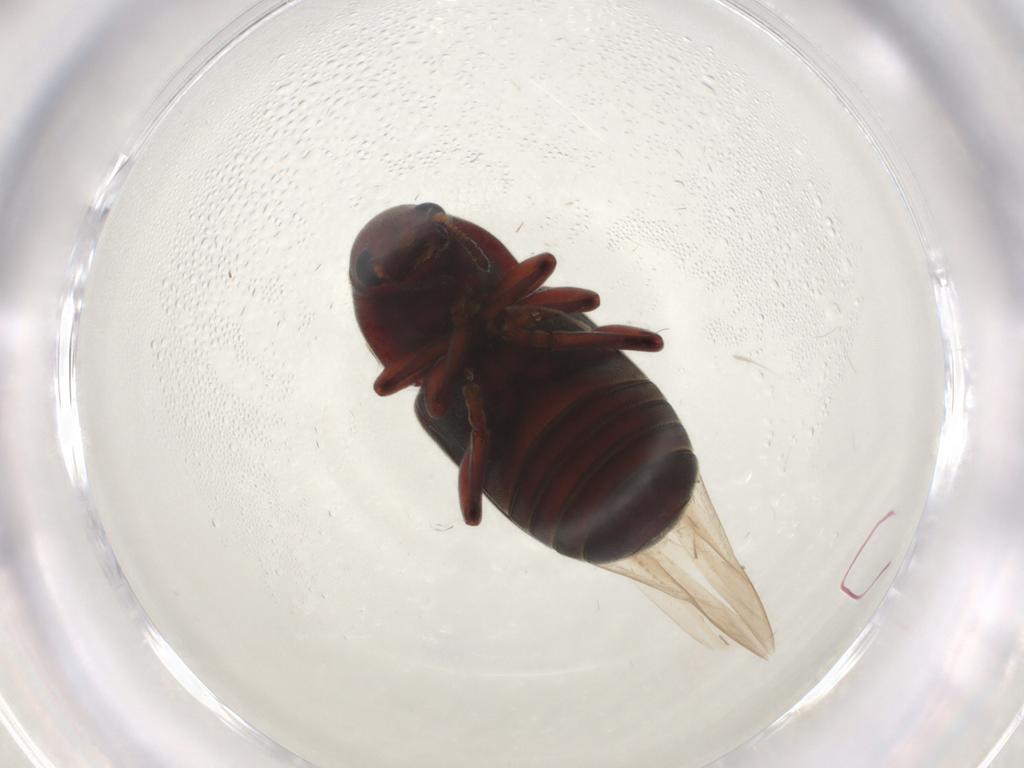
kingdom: Animalia
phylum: Arthropoda
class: Insecta
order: Coleoptera
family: Anthribidae
